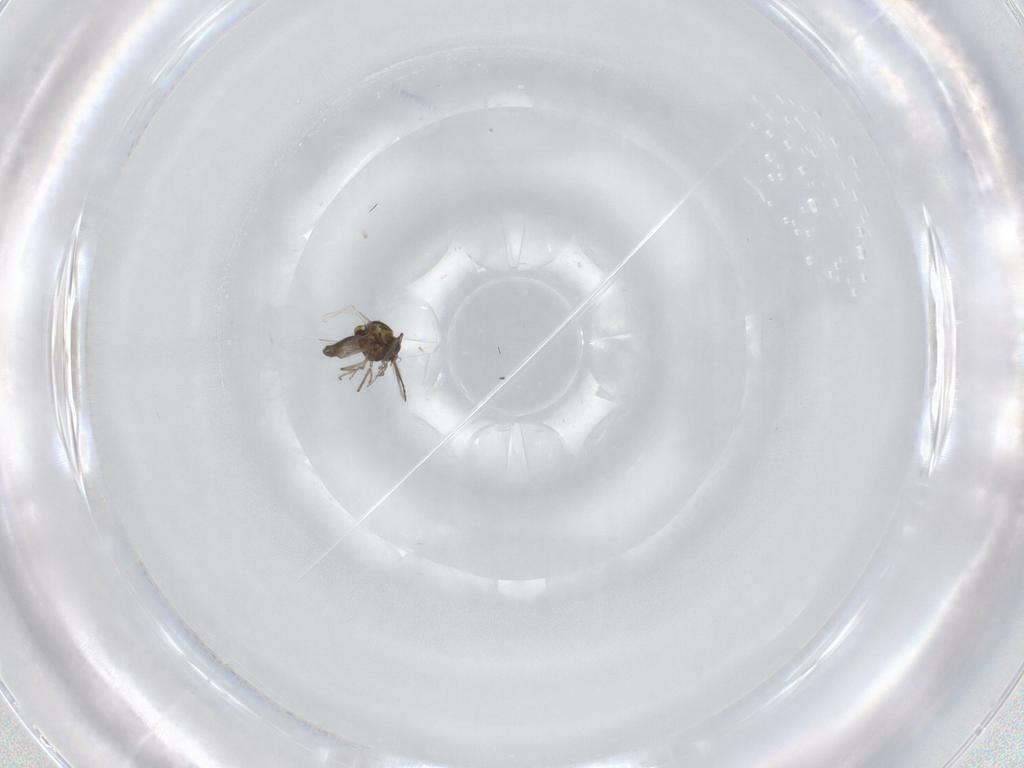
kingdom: Animalia
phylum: Arthropoda
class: Insecta
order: Diptera
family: Ceratopogonidae
